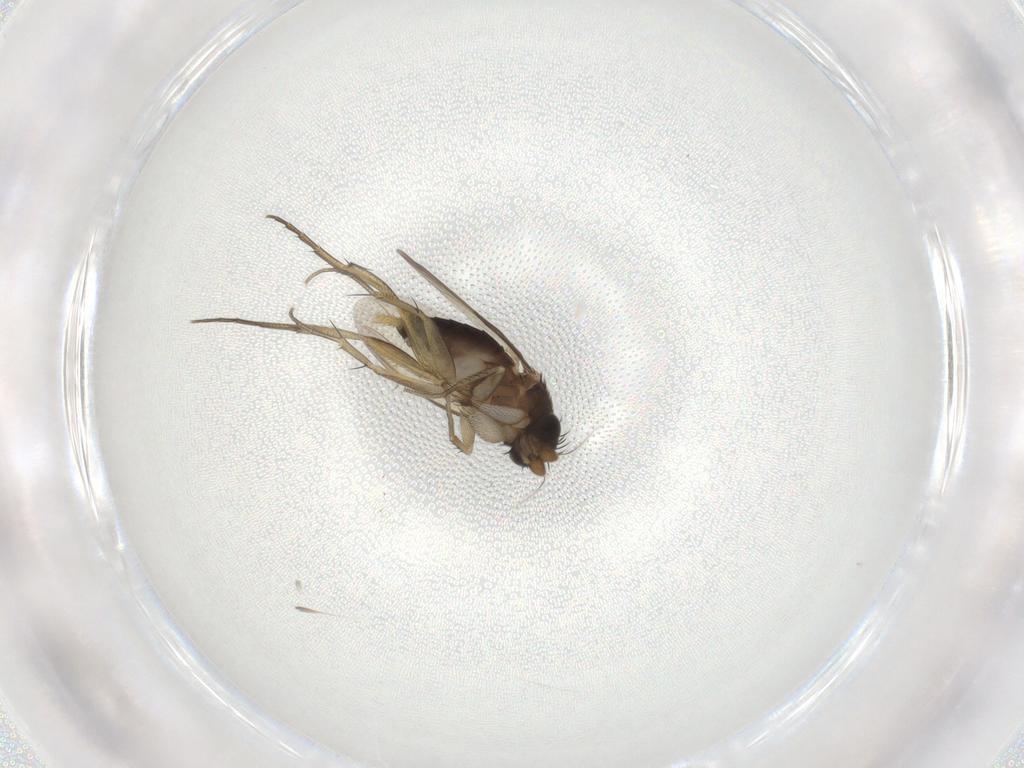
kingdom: Animalia
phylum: Arthropoda
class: Insecta
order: Diptera
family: Phoridae
